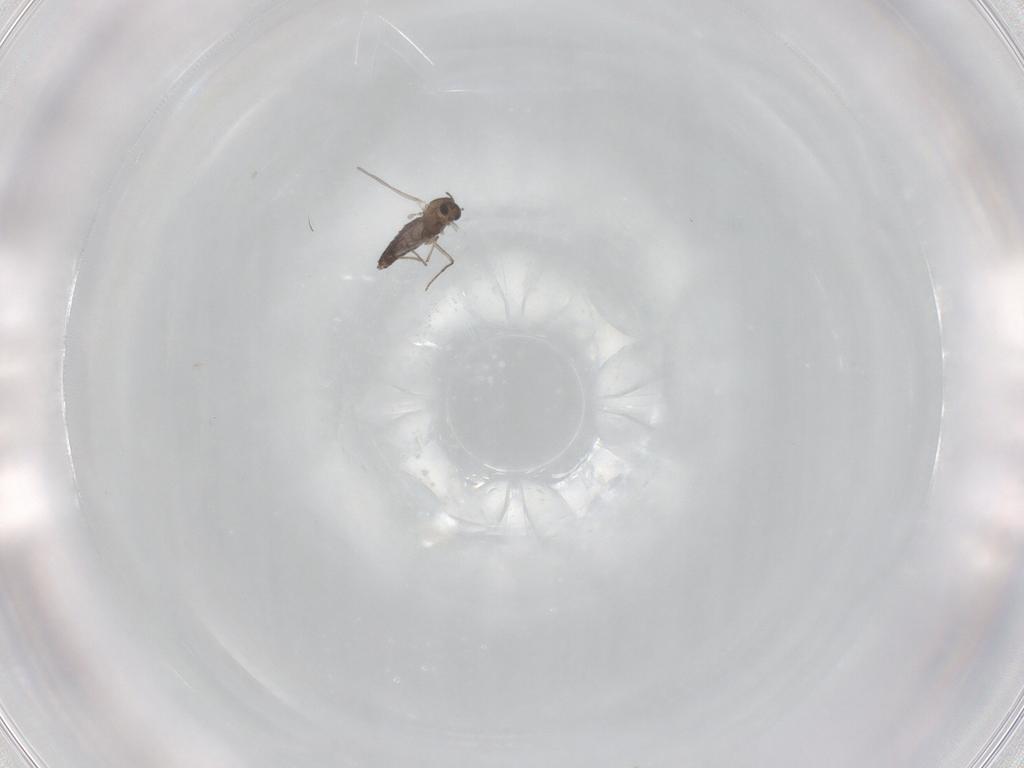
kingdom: Animalia
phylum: Arthropoda
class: Insecta
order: Diptera
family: Chironomidae
